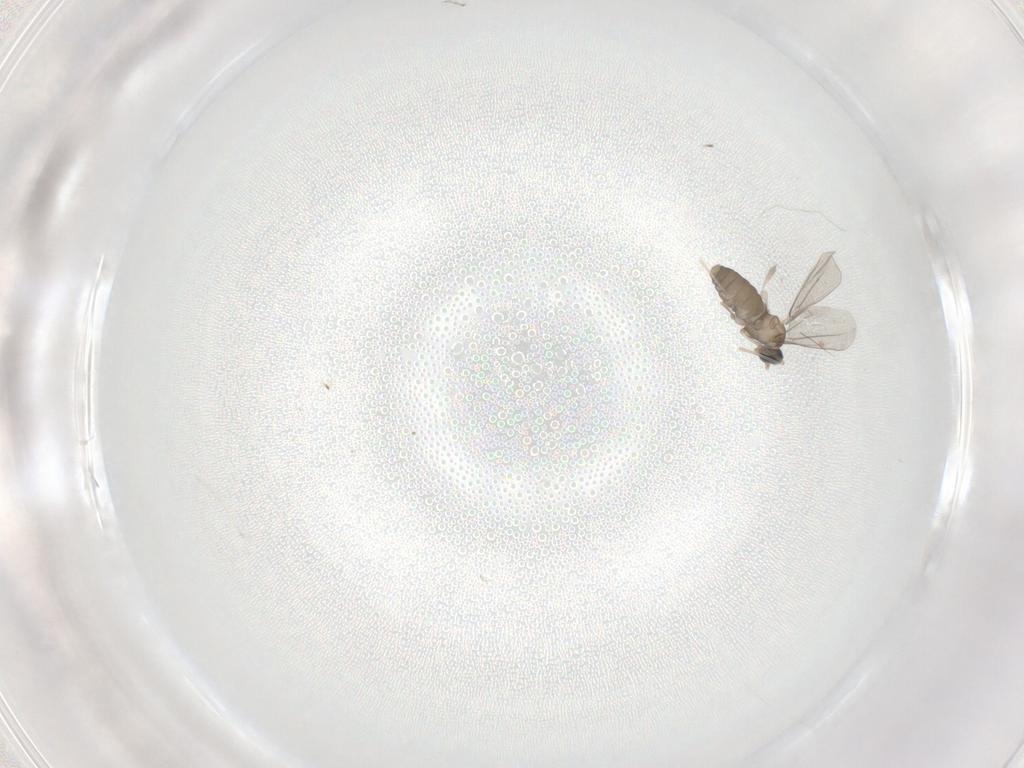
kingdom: Animalia
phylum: Arthropoda
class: Insecta
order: Diptera
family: Cecidomyiidae
